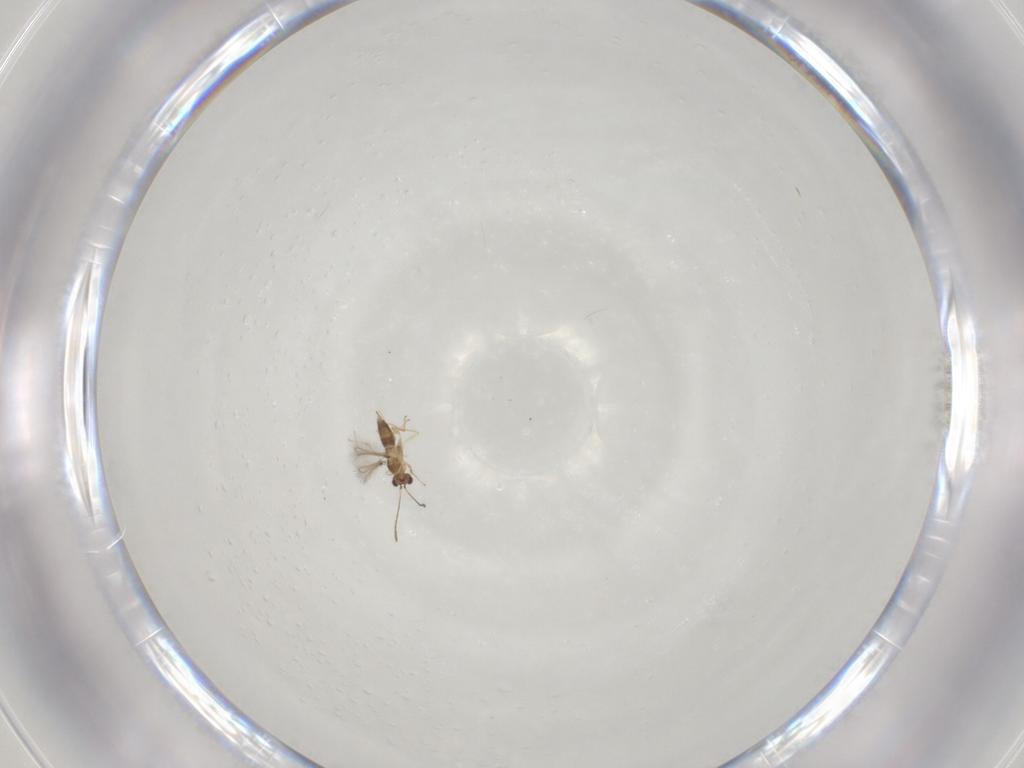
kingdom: Animalia
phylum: Arthropoda
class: Insecta
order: Hymenoptera
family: Mymaridae
